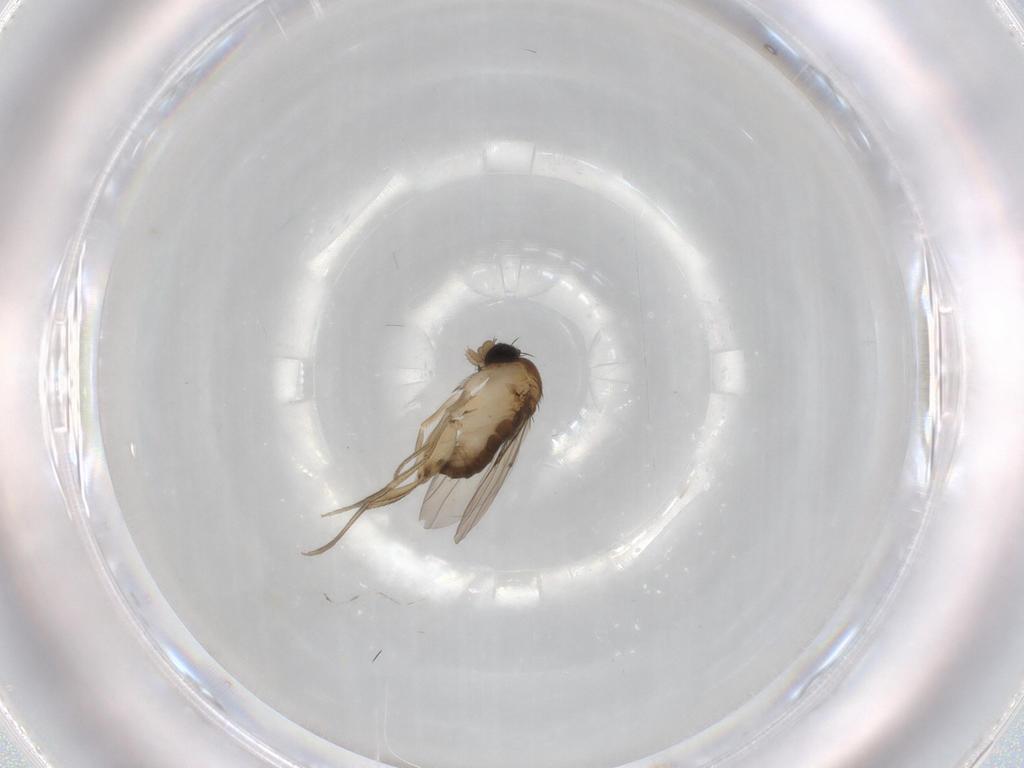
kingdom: Animalia
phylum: Arthropoda
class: Insecta
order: Diptera
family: Phoridae
